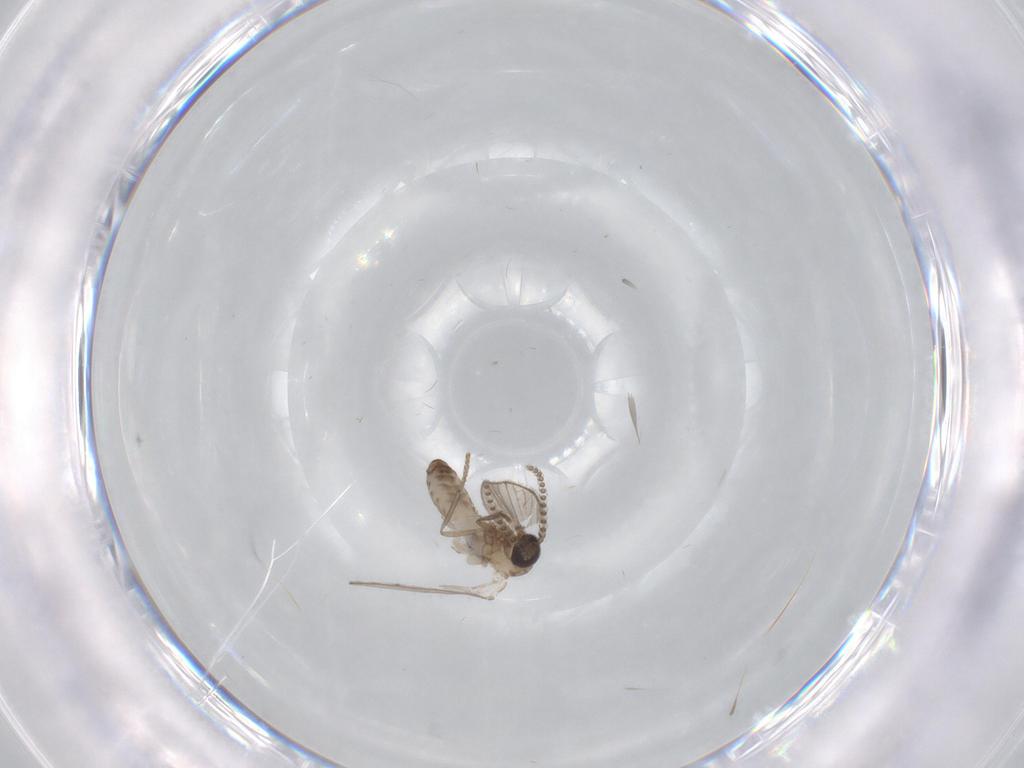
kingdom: Animalia
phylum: Arthropoda
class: Insecta
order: Diptera
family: Psychodidae
